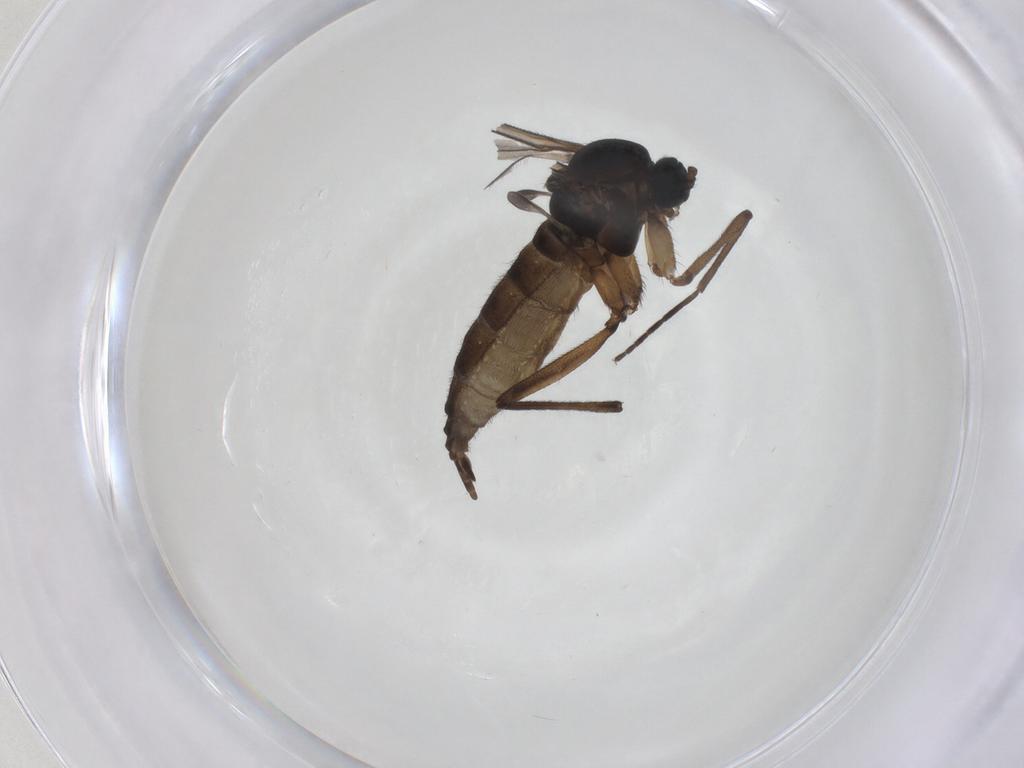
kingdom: Animalia
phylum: Arthropoda
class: Insecta
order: Diptera
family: Sciaridae
